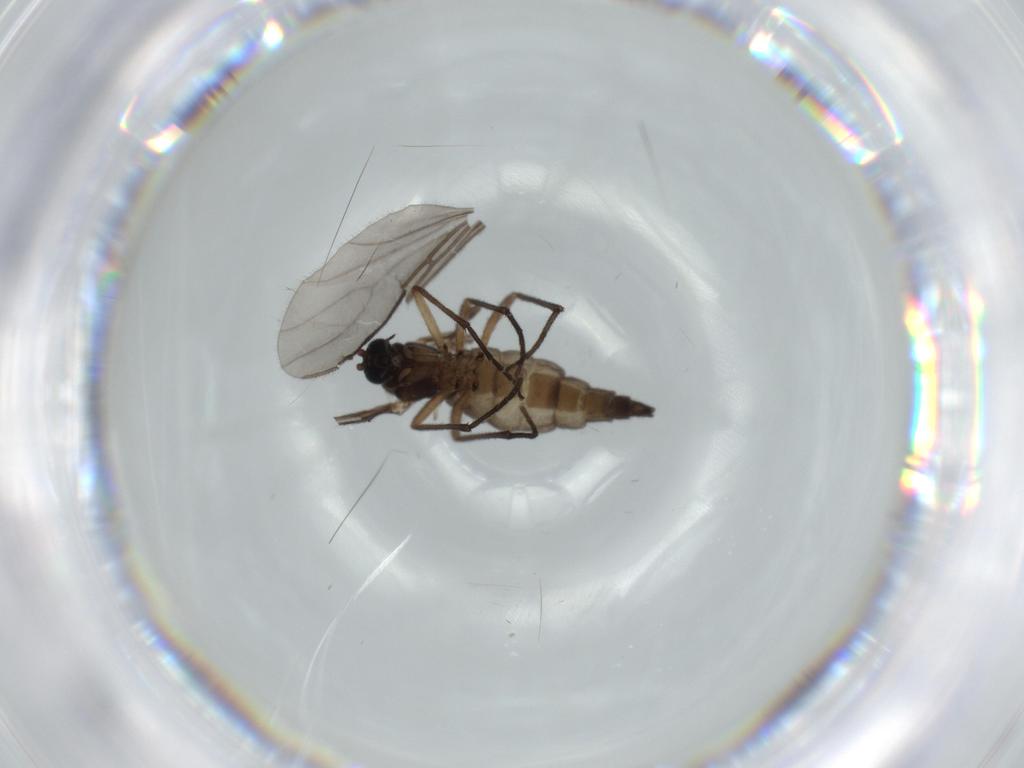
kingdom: Animalia
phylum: Arthropoda
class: Insecta
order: Diptera
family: Sciaridae
